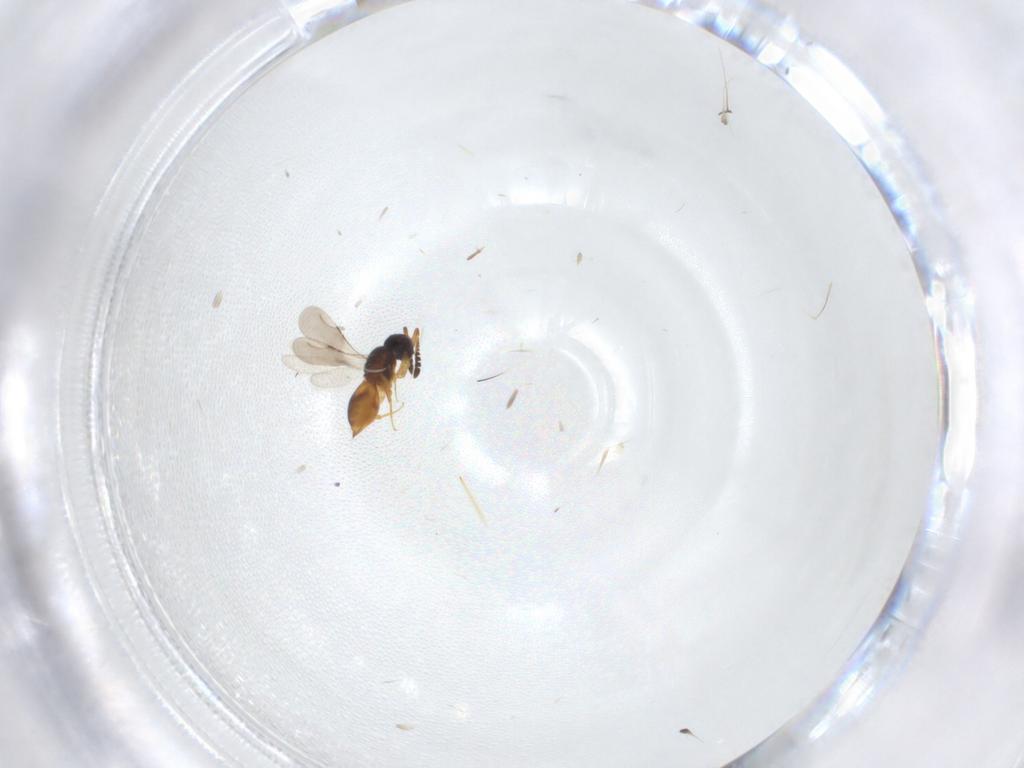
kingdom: Animalia
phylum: Arthropoda
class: Insecta
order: Hymenoptera
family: Ceraphronidae
